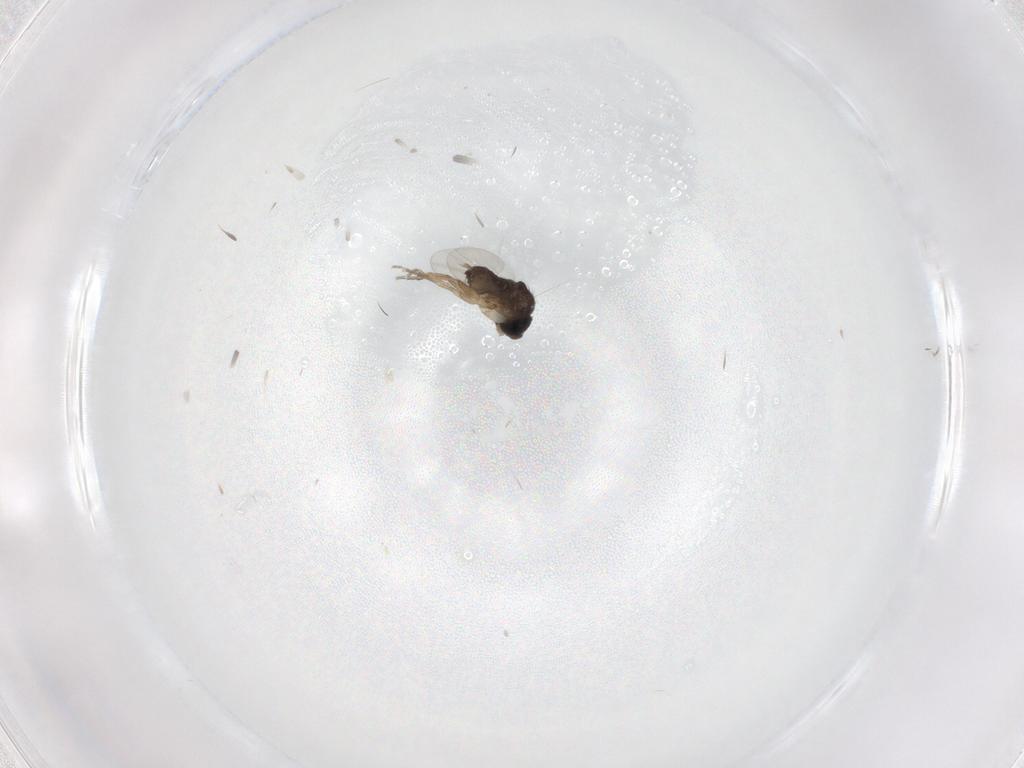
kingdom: Animalia
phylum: Arthropoda
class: Insecta
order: Diptera
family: Phoridae
